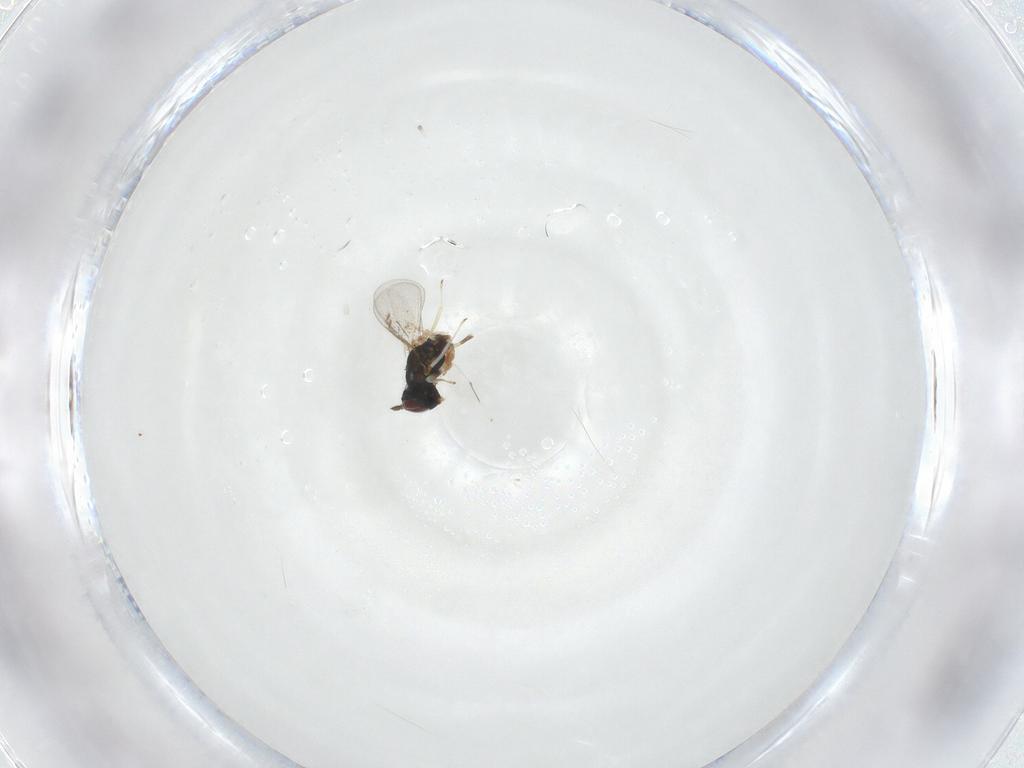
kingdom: Animalia
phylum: Arthropoda
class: Insecta
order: Hymenoptera
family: Eulophidae
